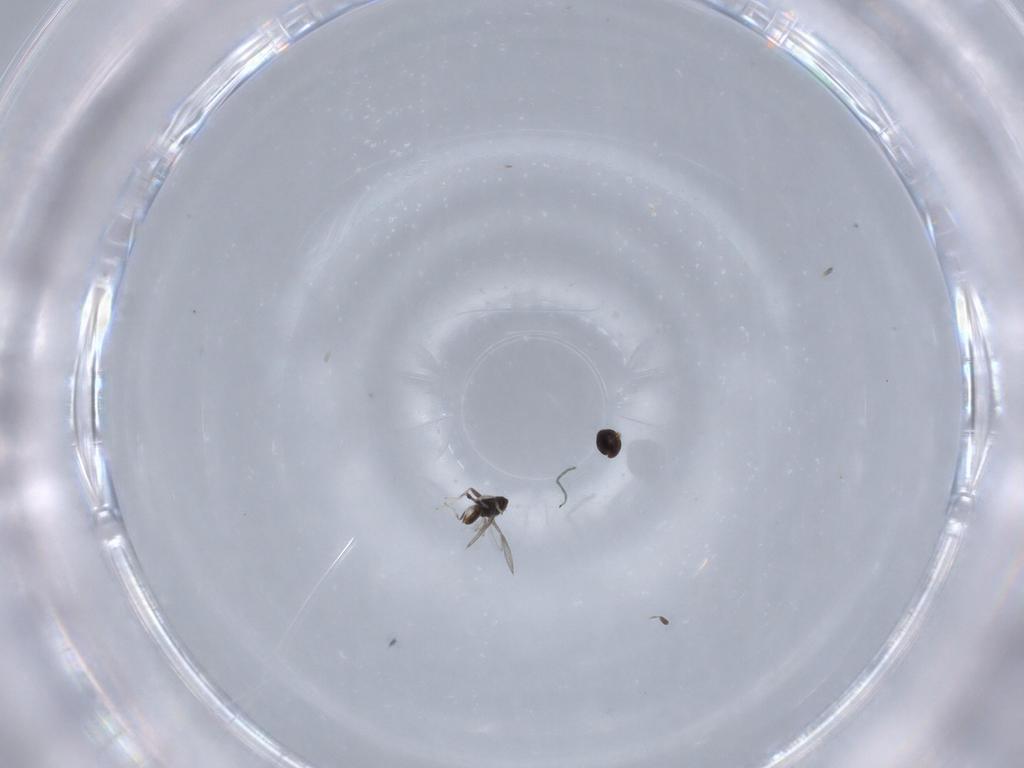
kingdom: Animalia
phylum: Arthropoda
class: Insecta
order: Hymenoptera
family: Eulophidae
